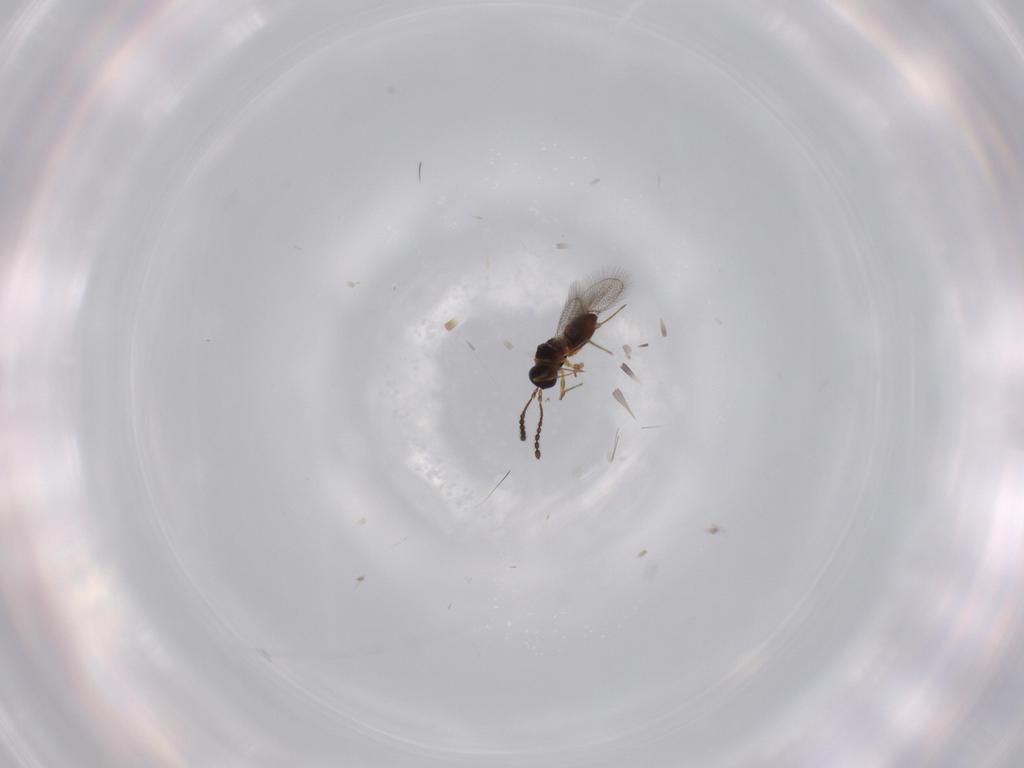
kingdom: Animalia
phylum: Arthropoda
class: Insecta
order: Hymenoptera
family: Figitidae
